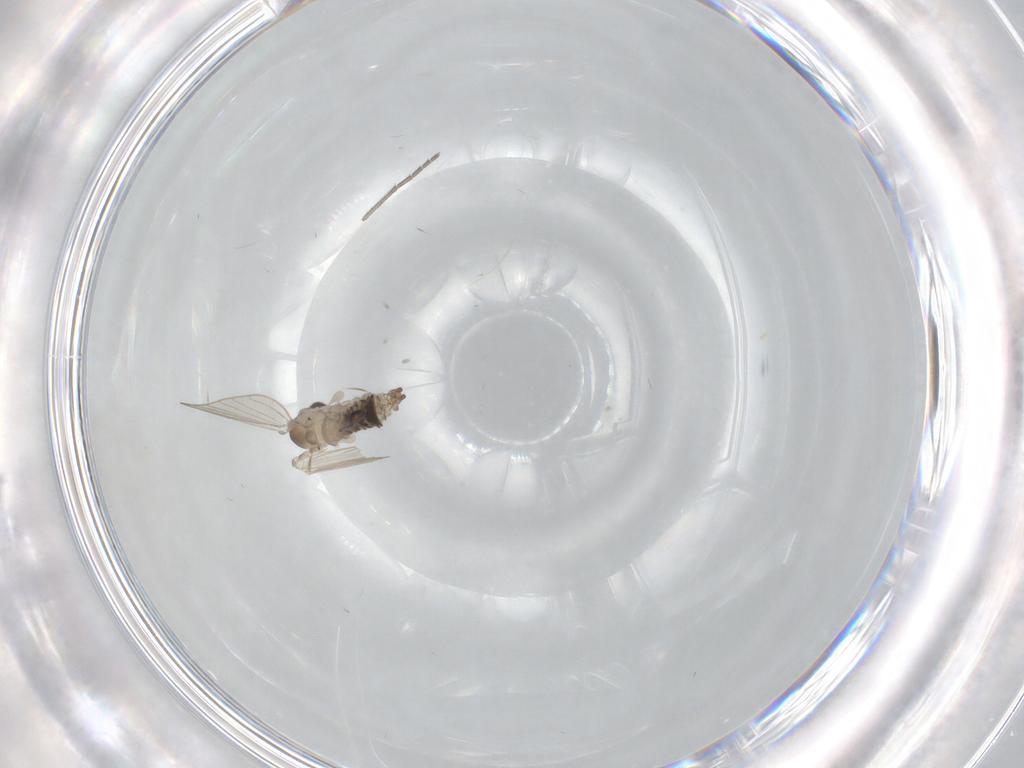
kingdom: Animalia
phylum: Arthropoda
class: Insecta
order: Diptera
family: Psychodidae
